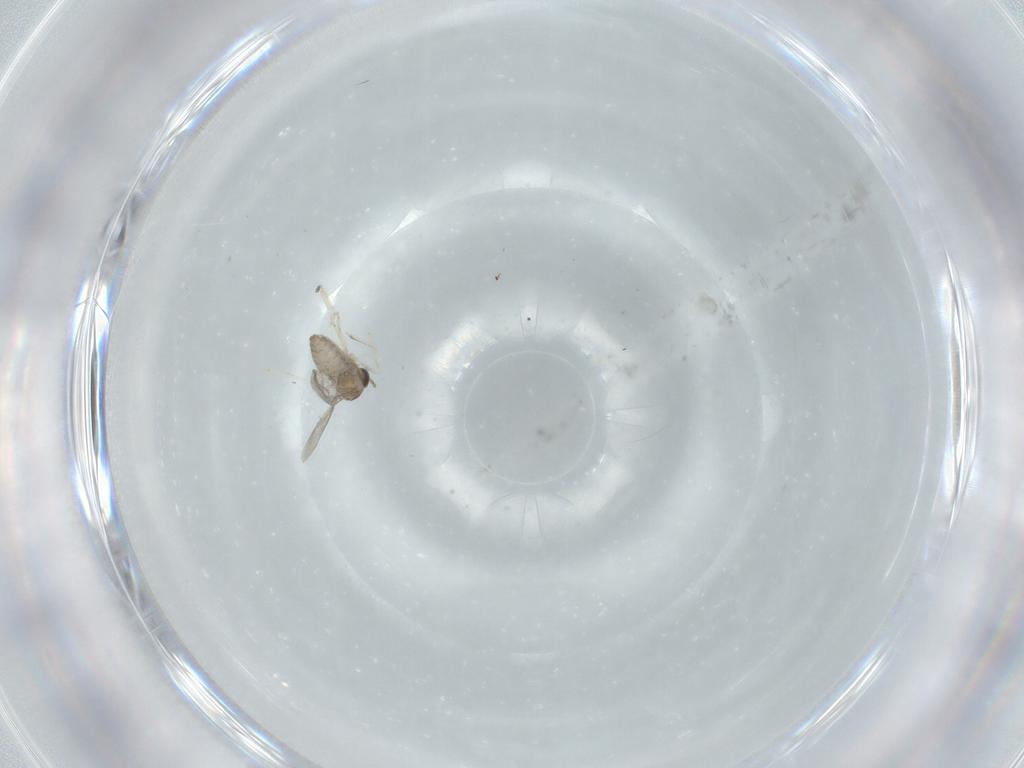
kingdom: Animalia
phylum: Arthropoda
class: Insecta
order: Diptera
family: Cecidomyiidae
